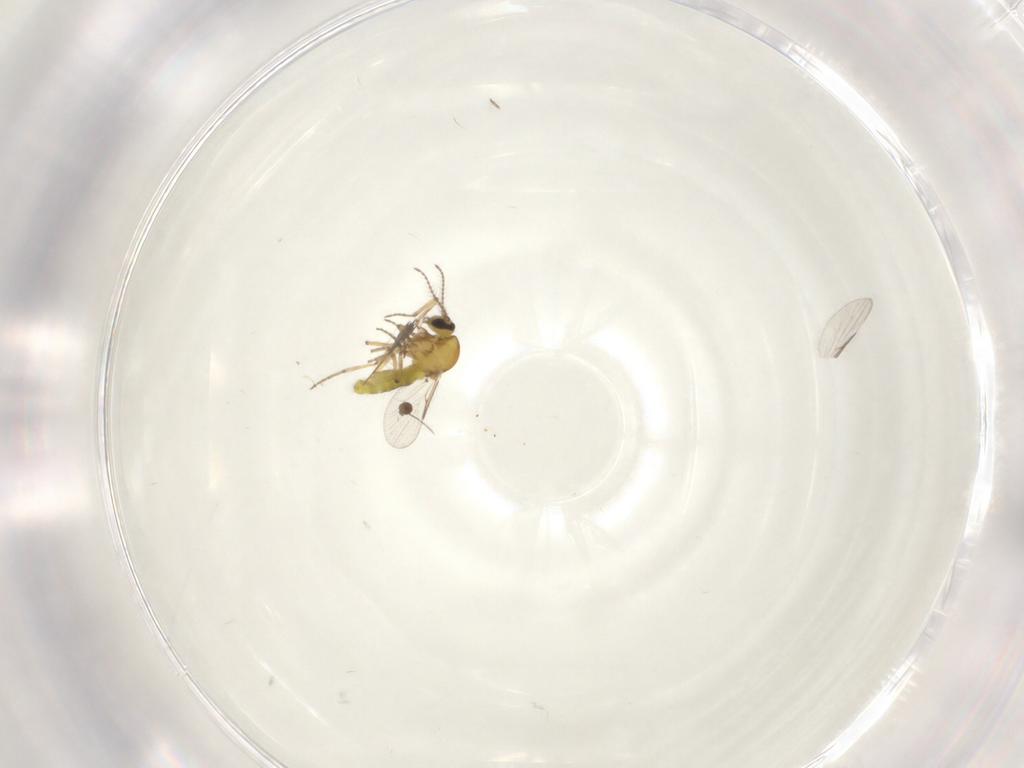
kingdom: Animalia
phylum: Arthropoda
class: Insecta
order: Diptera
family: Ceratopogonidae
